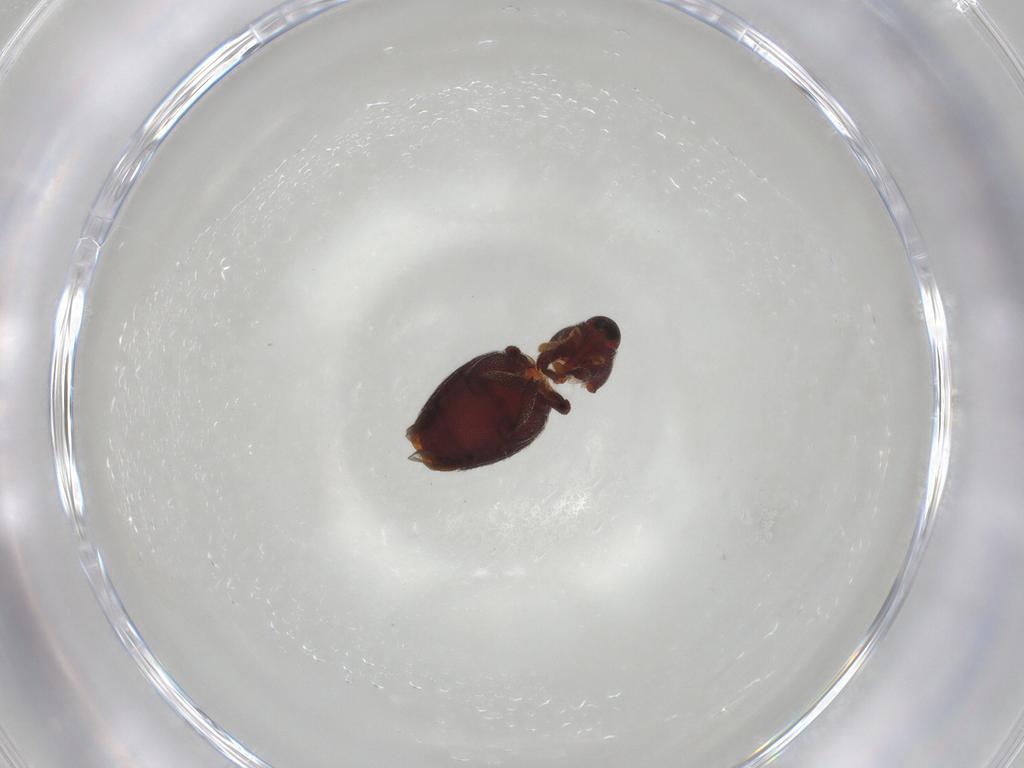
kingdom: Animalia
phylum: Arthropoda
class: Insecta
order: Coleoptera
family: Curculionidae
